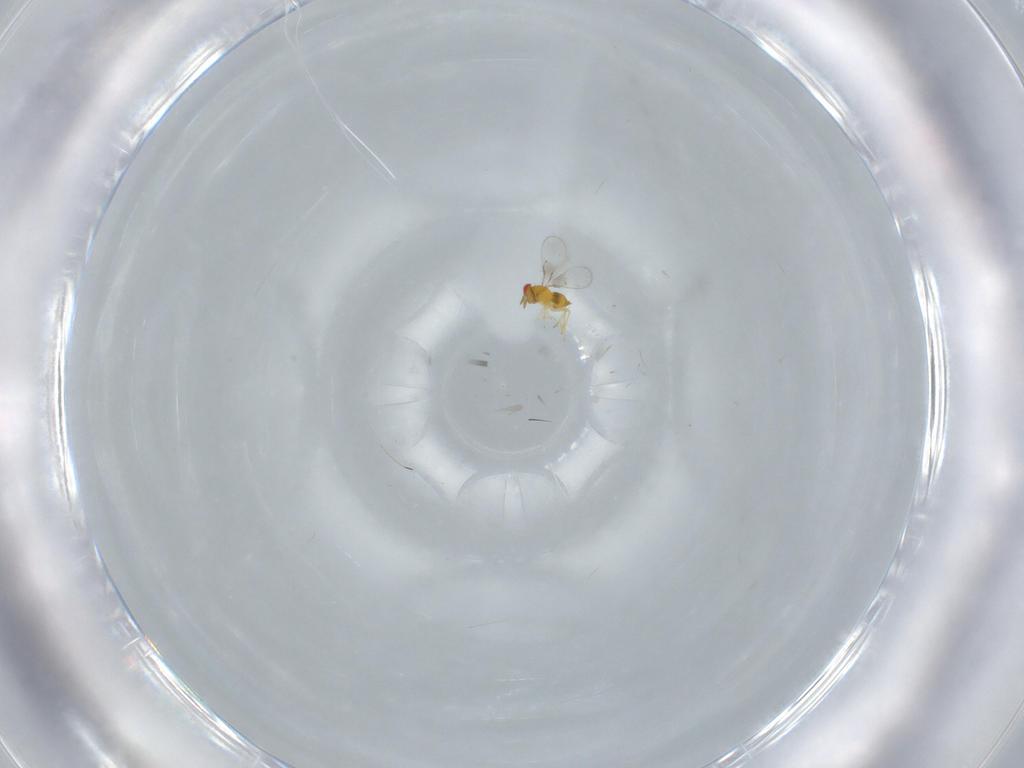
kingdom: Animalia
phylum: Arthropoda
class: Insecta
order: Hymenoptera
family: Trichogrammatidae
